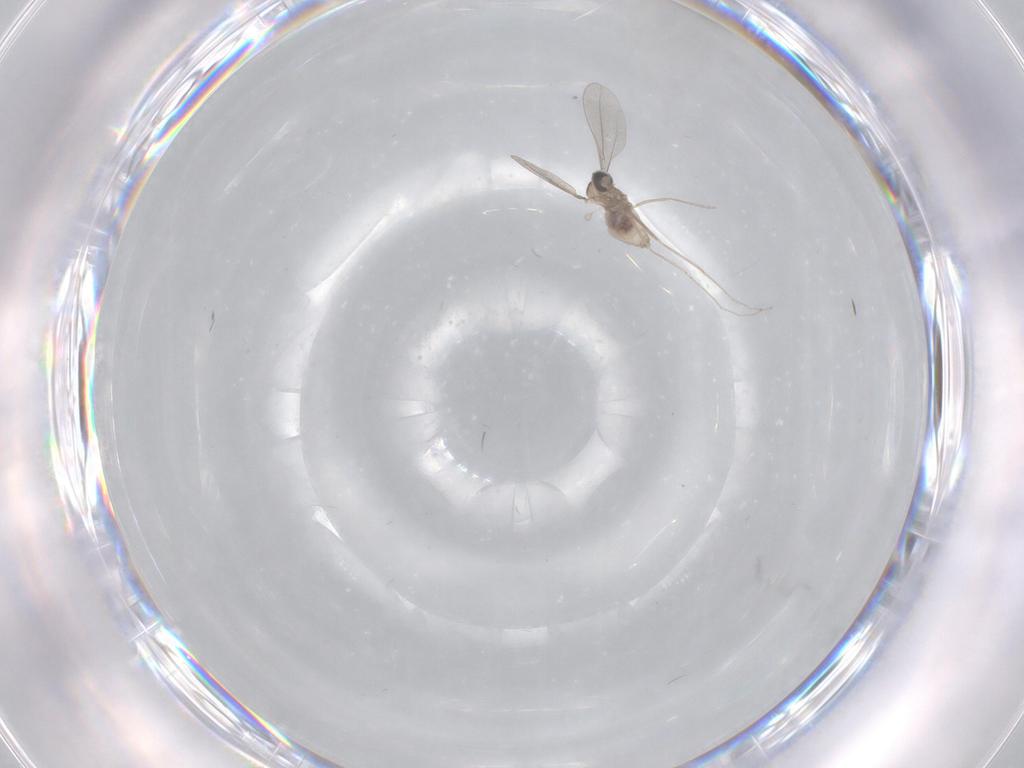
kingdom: Animalia
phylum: Arthropoda
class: Insecta
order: Diptera
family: Cecidomyiidae
